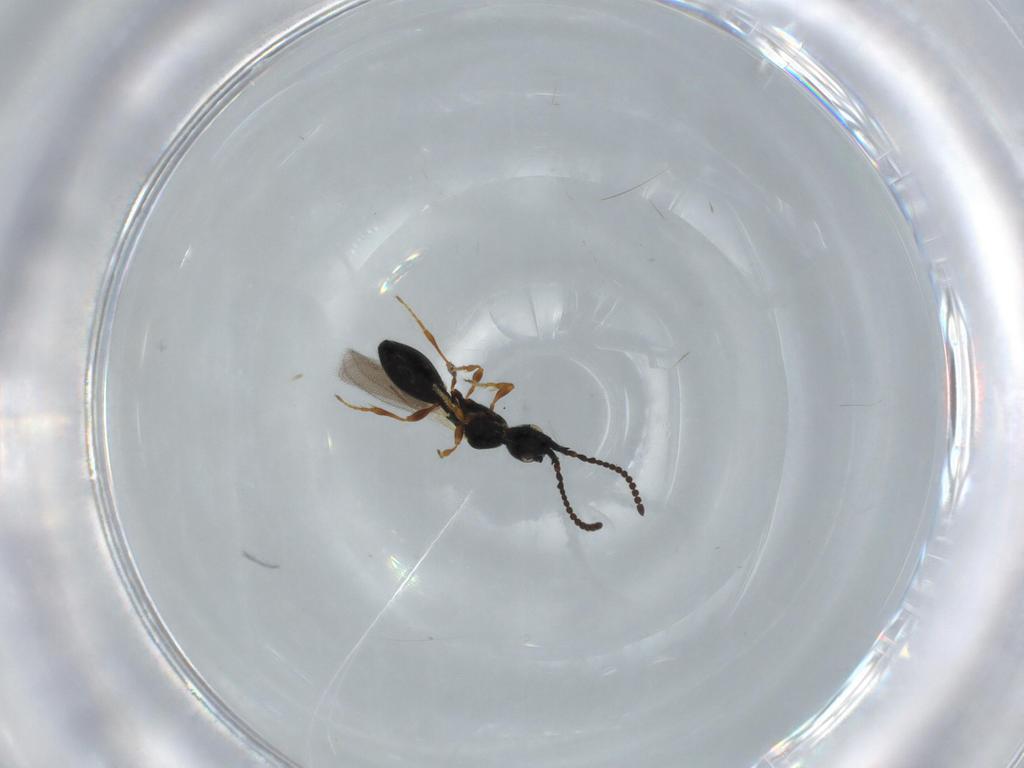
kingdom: Animalia
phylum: Arthropoda
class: Insecta
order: Hymenoptera
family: Diapriidae
